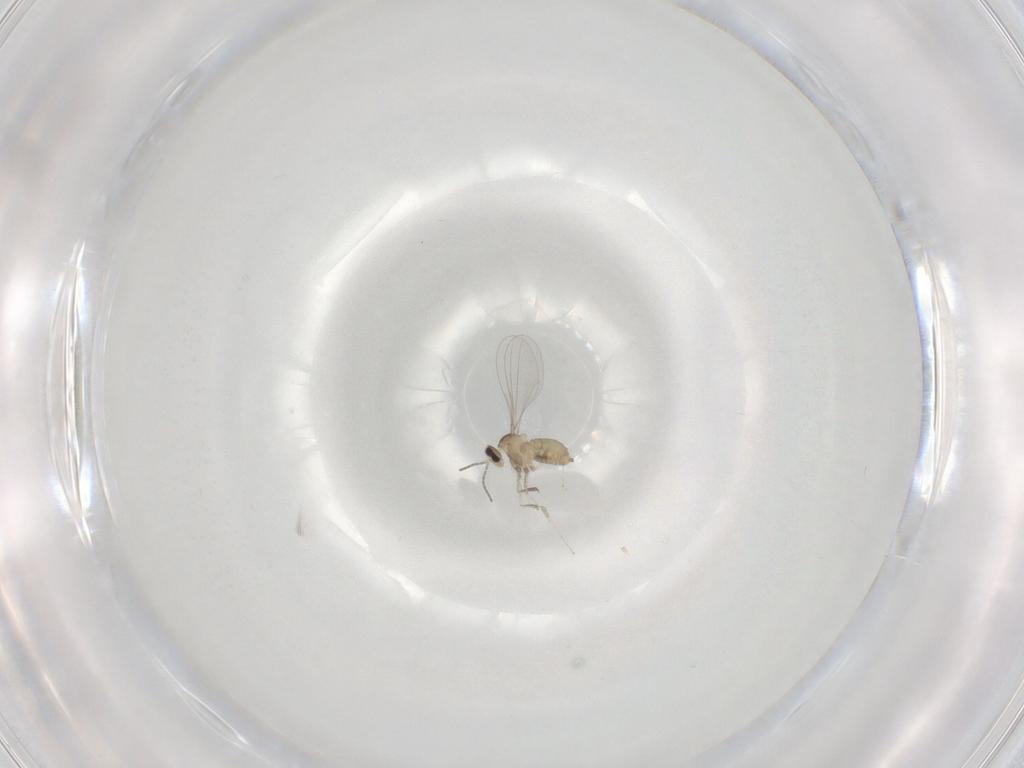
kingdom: Animalia
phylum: Arthropoda
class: Insecta
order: Diptera
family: Cecidomyiidae
